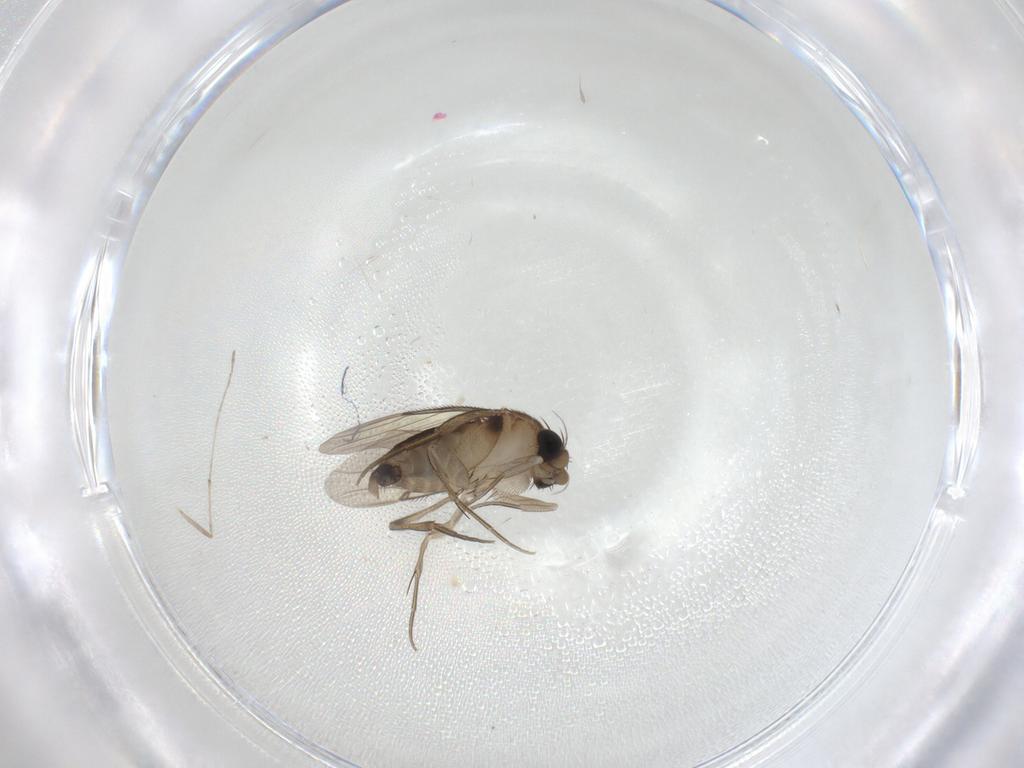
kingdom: Animalia
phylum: Arthropoda
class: Insecta
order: Diptera
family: Phoridae
